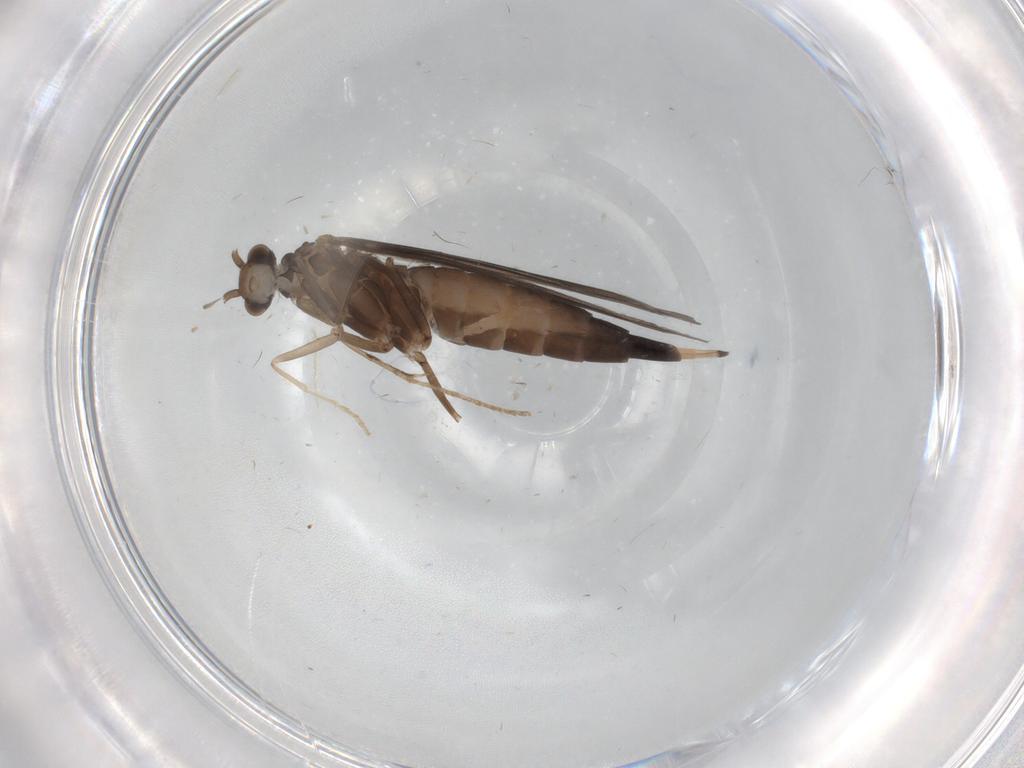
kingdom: Animalia
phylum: Arthropoda
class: Insecta
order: Trichoptera
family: Xiphocentronidae
